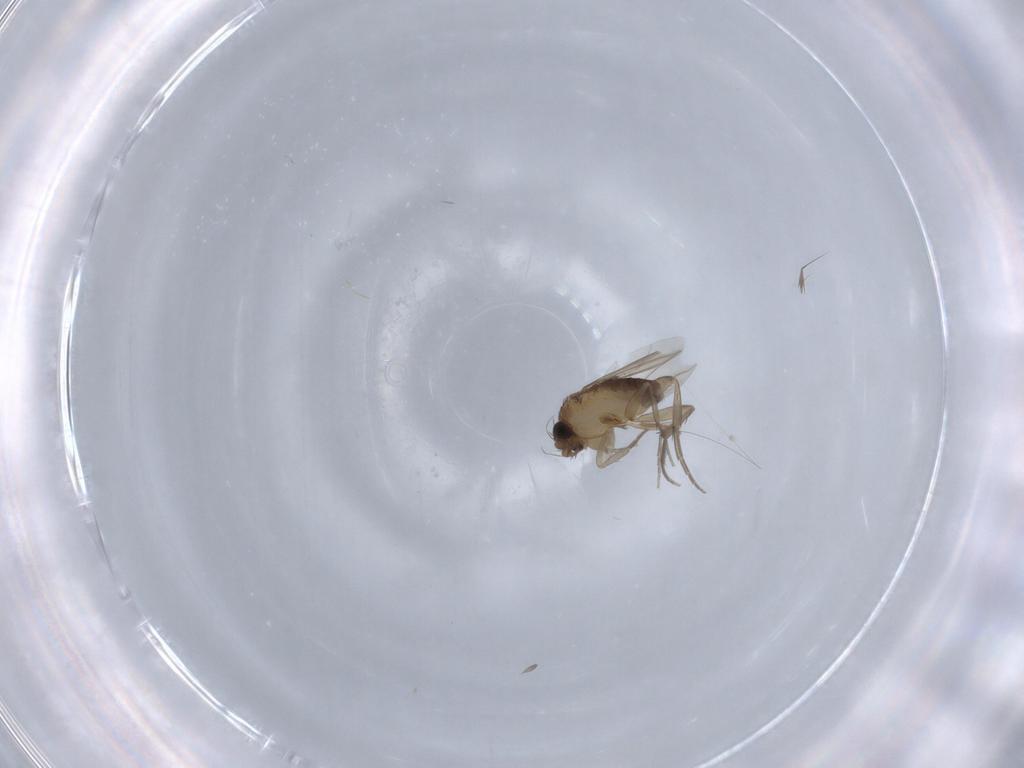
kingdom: Animalia
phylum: Arthropoda
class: Insecta
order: Diptera
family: Phoridae
